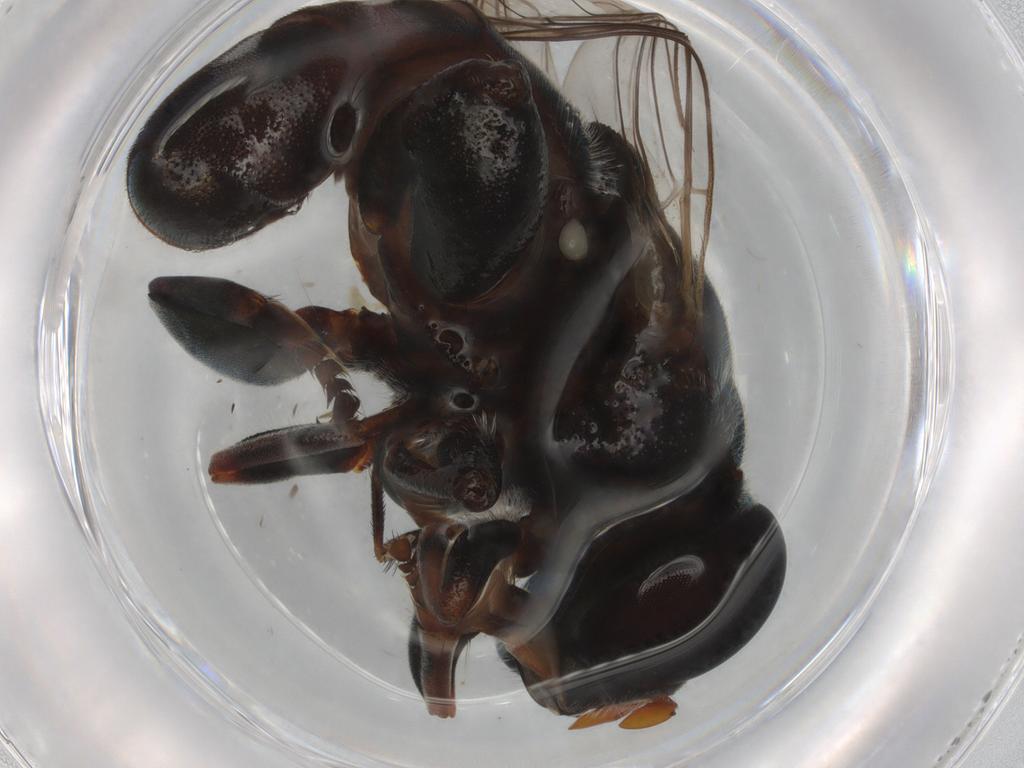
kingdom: Animalia
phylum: Arthropoda
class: Insecta
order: Diptera
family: Syrphidae
